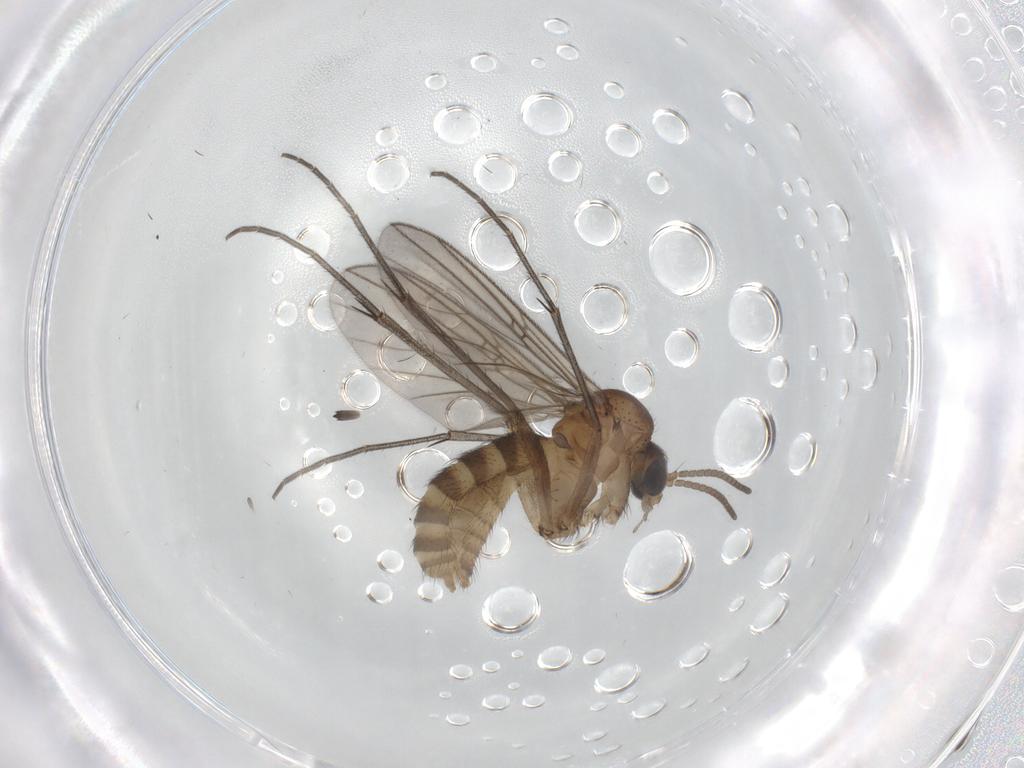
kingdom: Animalia
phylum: Arthropoda
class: Insecta
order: Diptera
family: Mycetophilidae
